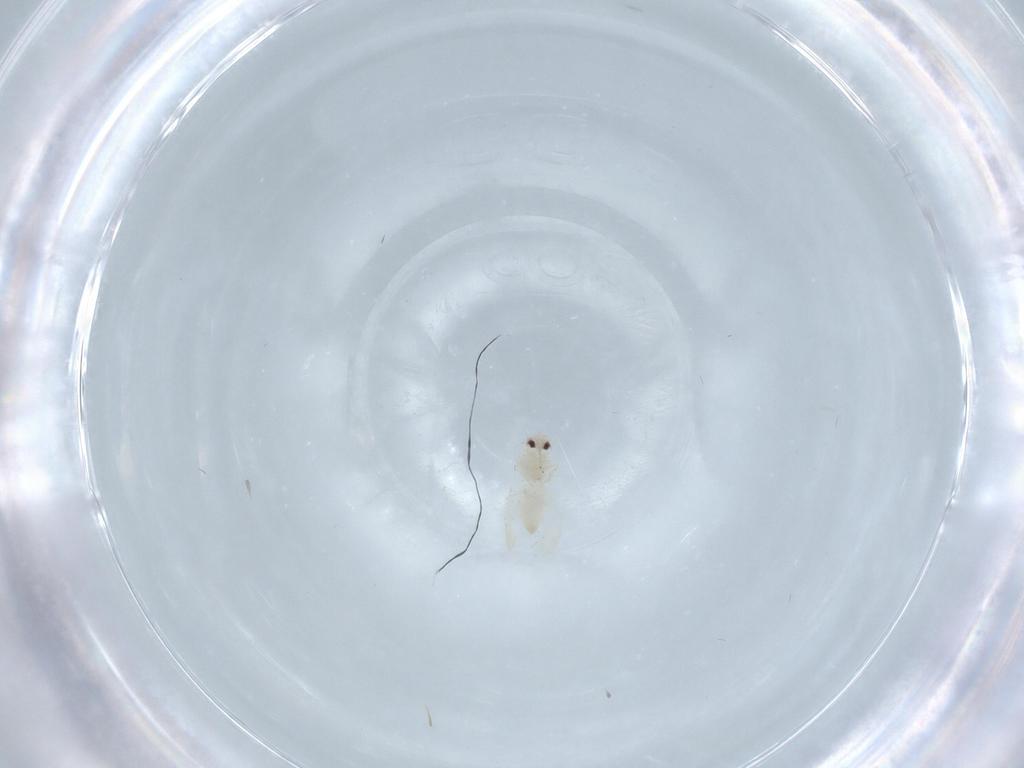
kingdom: Animalia
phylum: Arthropoda
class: Insecta
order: Hemiptera
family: Aleyrodidae
